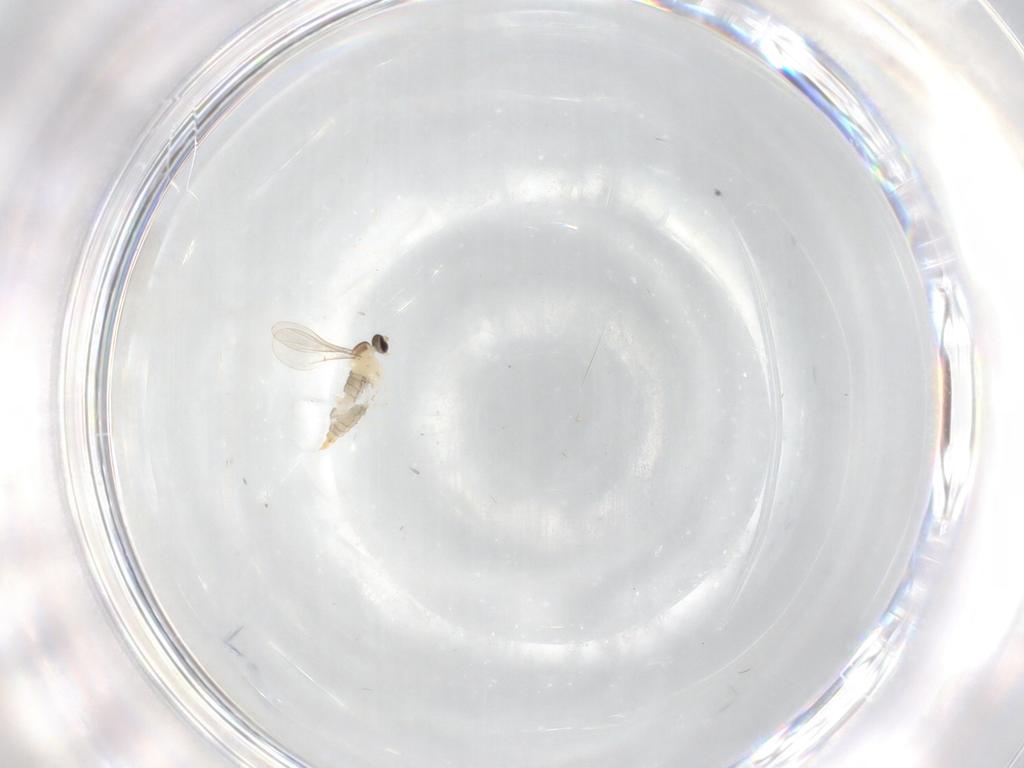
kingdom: Animalia
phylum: Arthropoda
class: Insecta
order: Diptera
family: Cecidomyiidae
